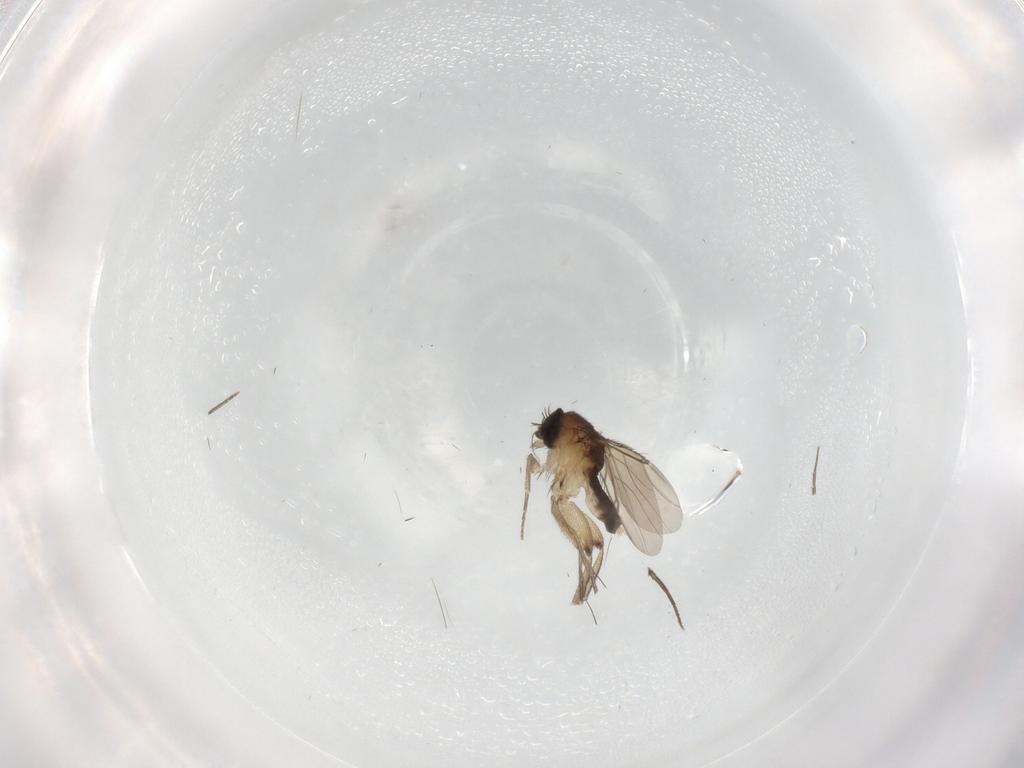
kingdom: Animalia
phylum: Arthropoda
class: Insecta
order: Diptera
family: Phoridae
